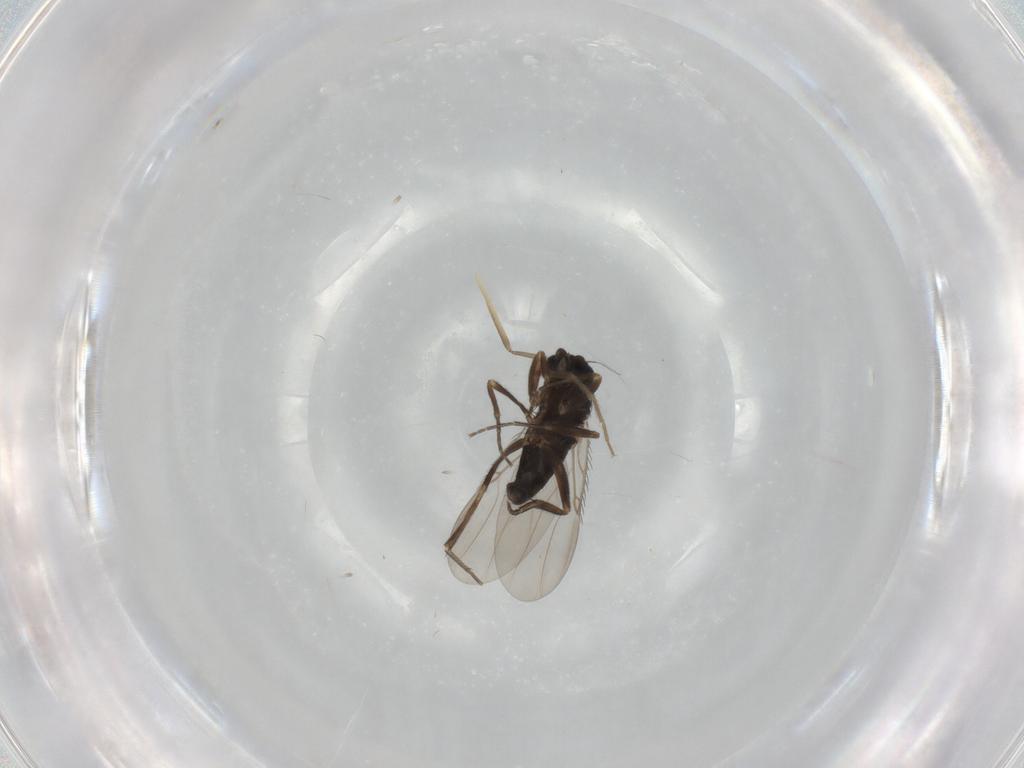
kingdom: Animalia
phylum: Arthropoda
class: Insecta
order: Diptera
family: Phoridae
